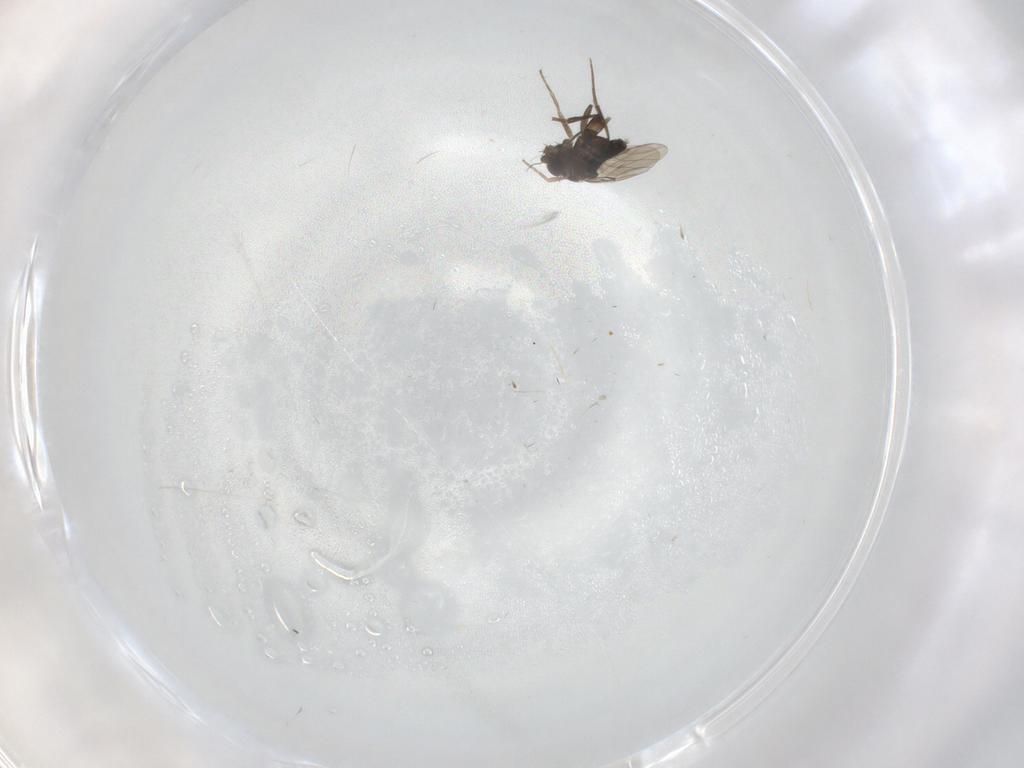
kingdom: Animalia
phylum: Arthropoda
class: Insecta
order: Diptera
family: Phoridae
